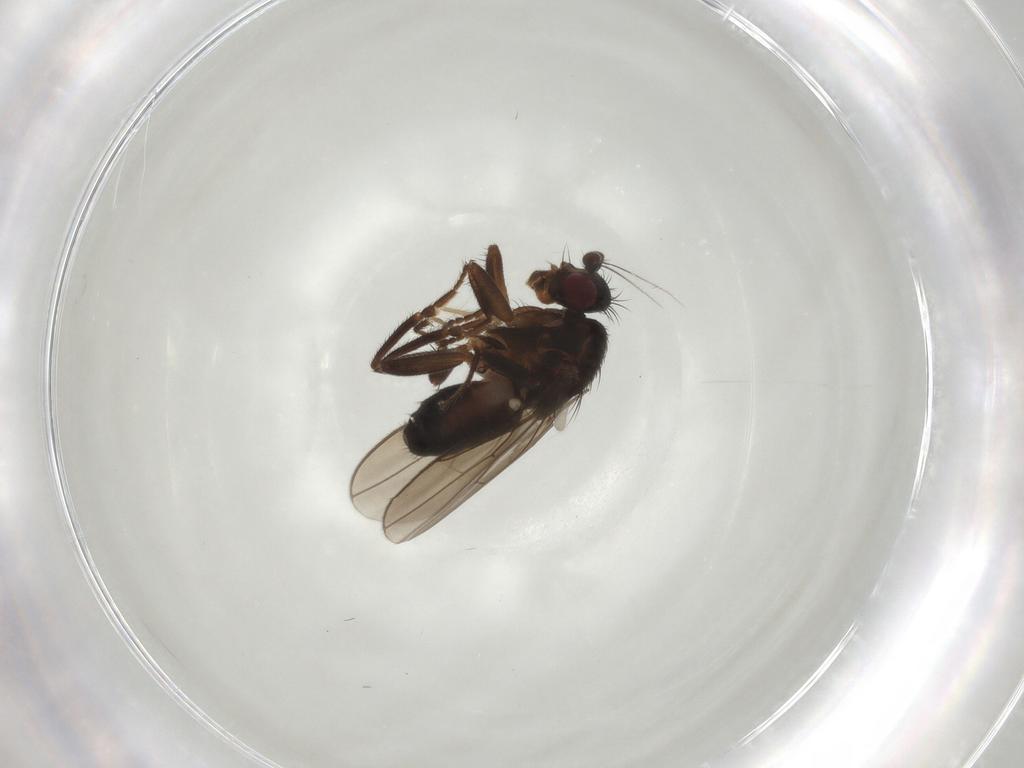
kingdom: Animalia
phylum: Arthropoda
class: Insecta
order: Diptera
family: Sphaeroceridae
